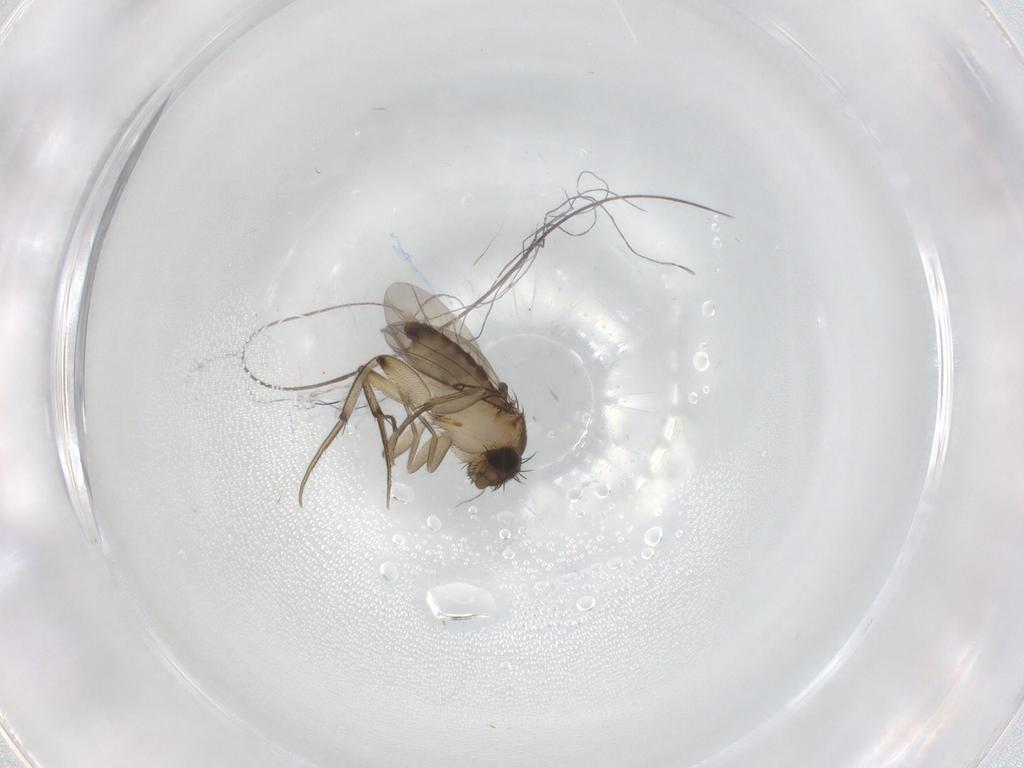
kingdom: Animalia
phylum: Arthropoda
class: Insecta
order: Diptera
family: Phoridae
